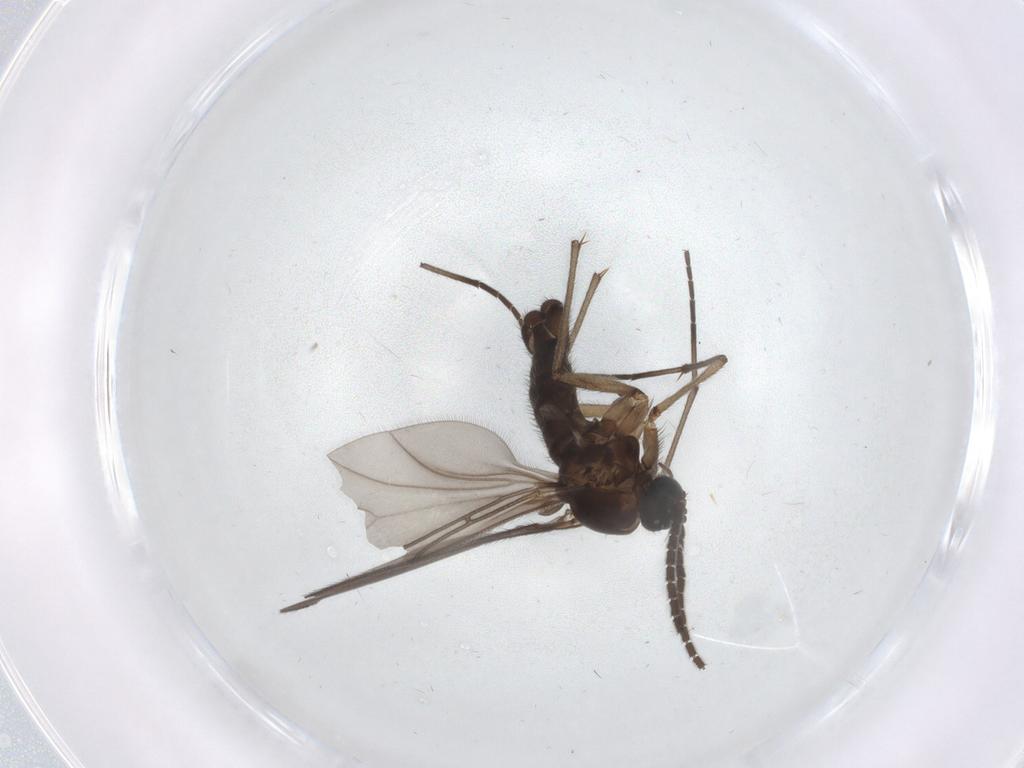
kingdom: Animalia
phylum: Arthropoda
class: Insecta
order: Diptera
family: Sciaridae
